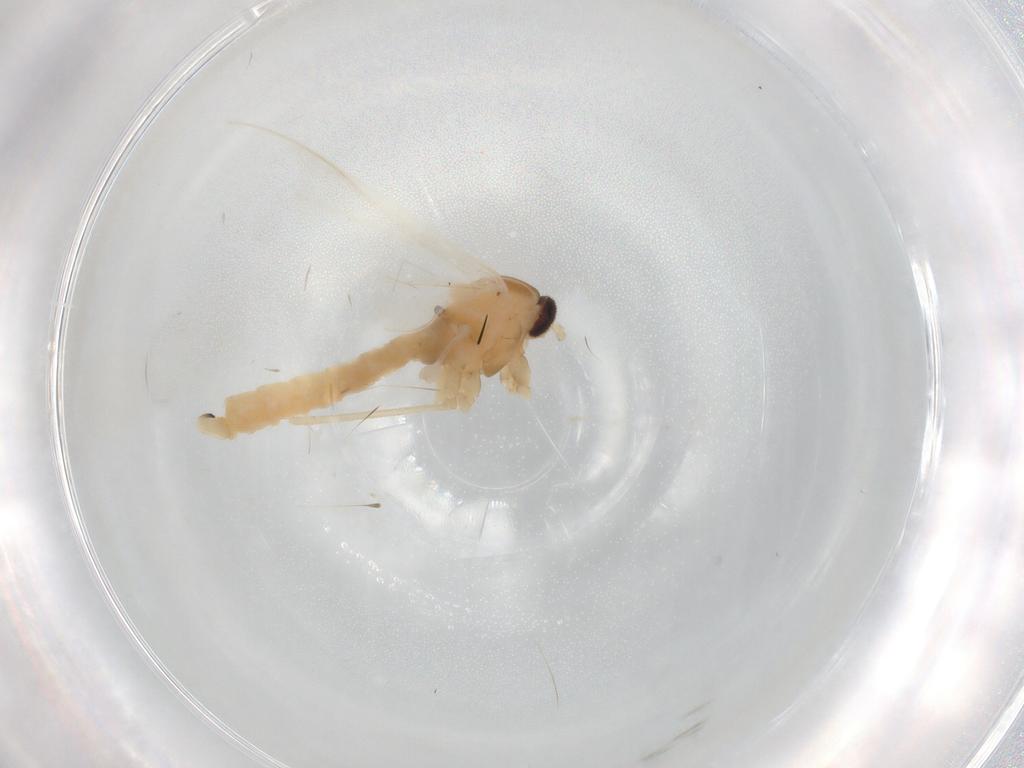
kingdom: Animalia
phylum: Arthropoda
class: Insecta
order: Diptera
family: Cecidomyiidae
